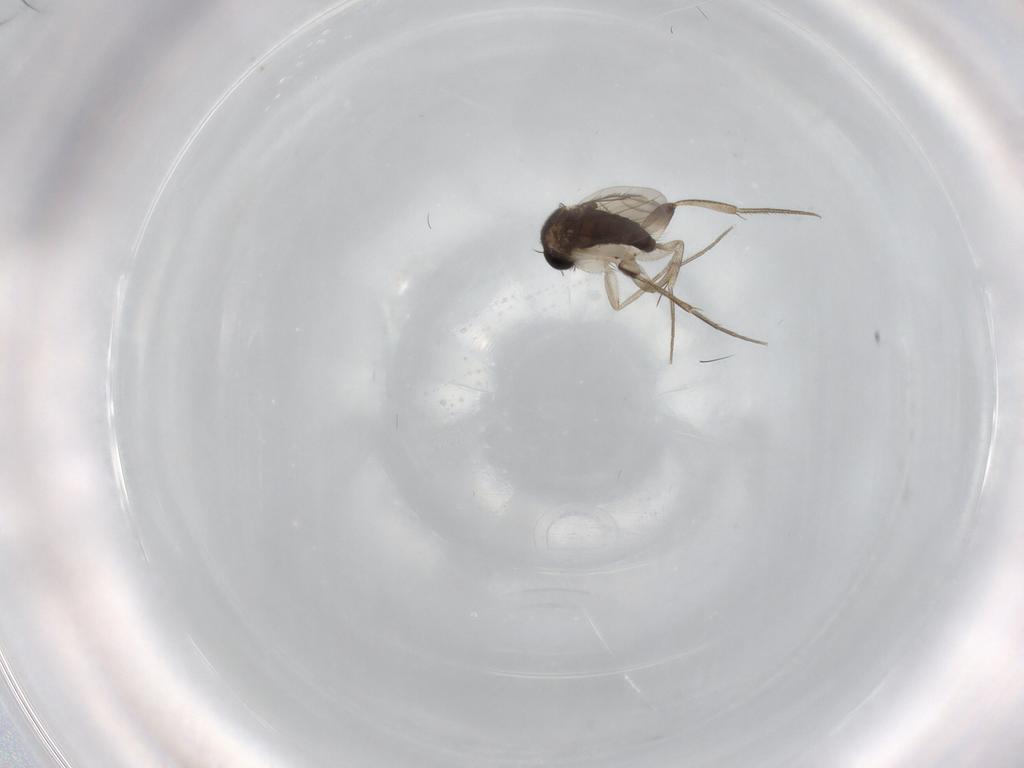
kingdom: Animalia
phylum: Arthropoda
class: Insecta
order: Diptera
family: Phoridae
